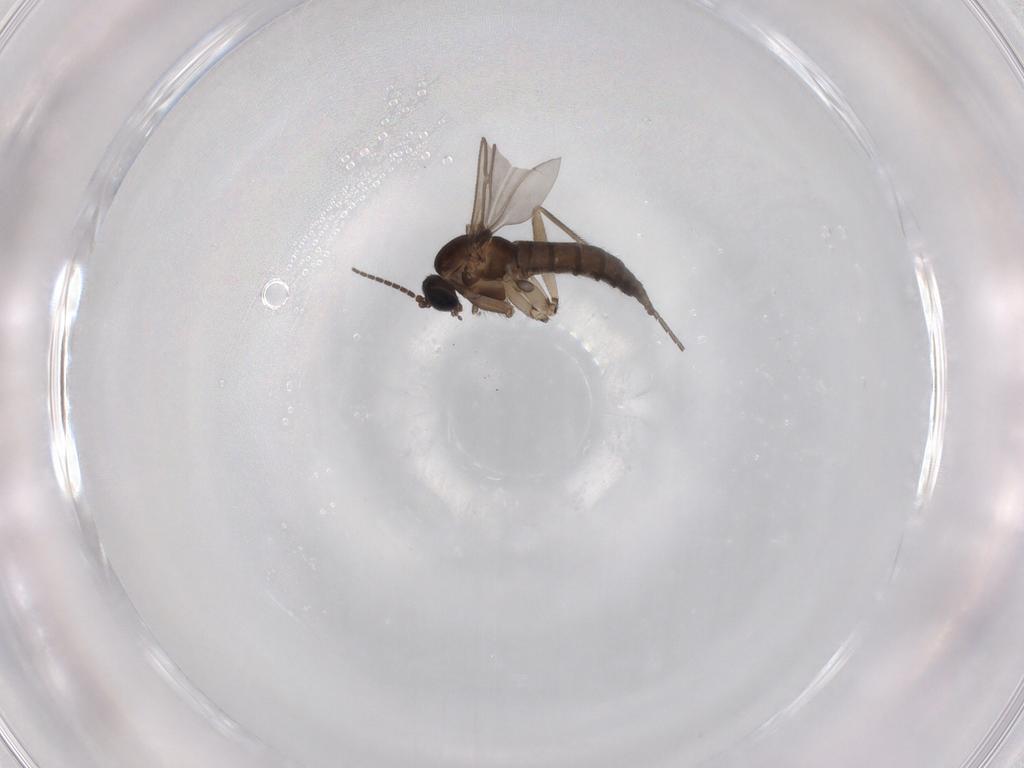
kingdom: Animalia
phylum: Arthropoda
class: Insecta
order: Diptera
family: Sciaridae
